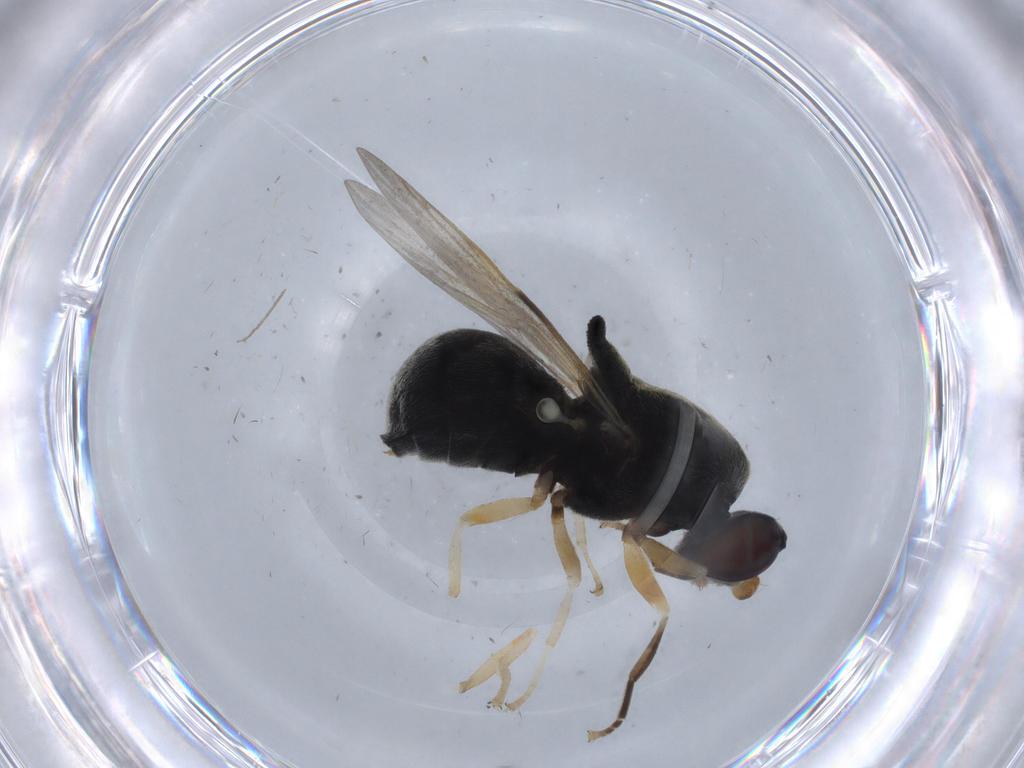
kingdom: Animalia
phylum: Arthropoda
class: Insecta
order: Diptera
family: Stratiomyidae
